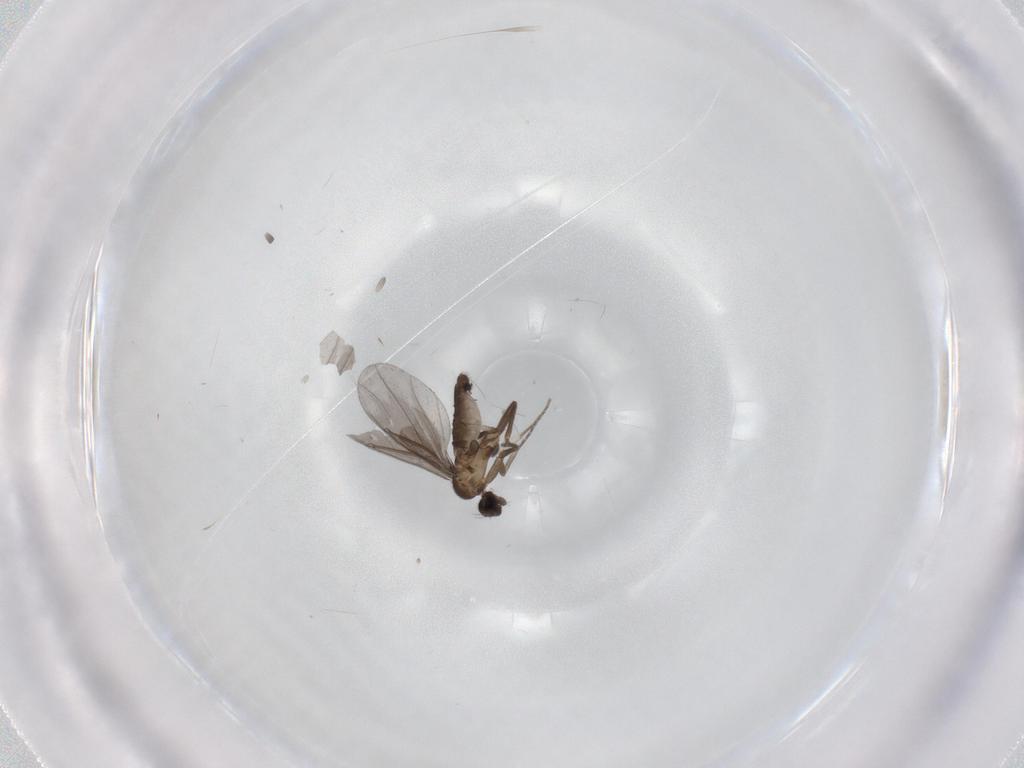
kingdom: Animalia
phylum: Arthropoda
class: Insecta
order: Diptera
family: Phoridae
